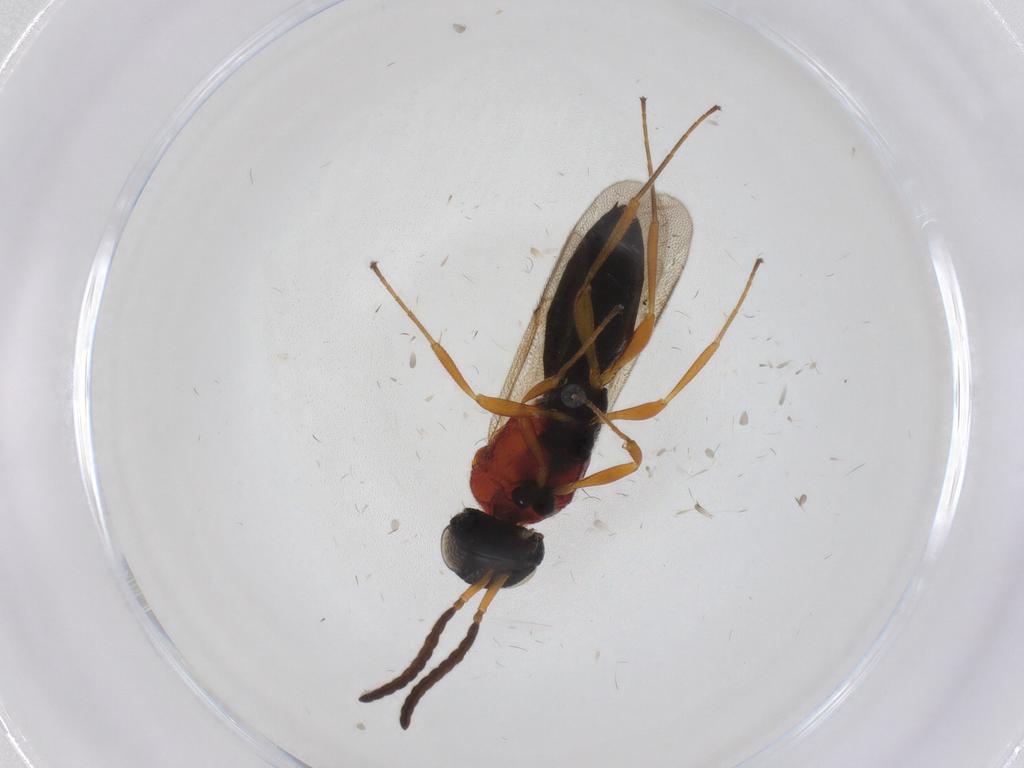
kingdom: Animalia
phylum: Arthropoda
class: Insecta
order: Hymenoptera
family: Scelionidae
